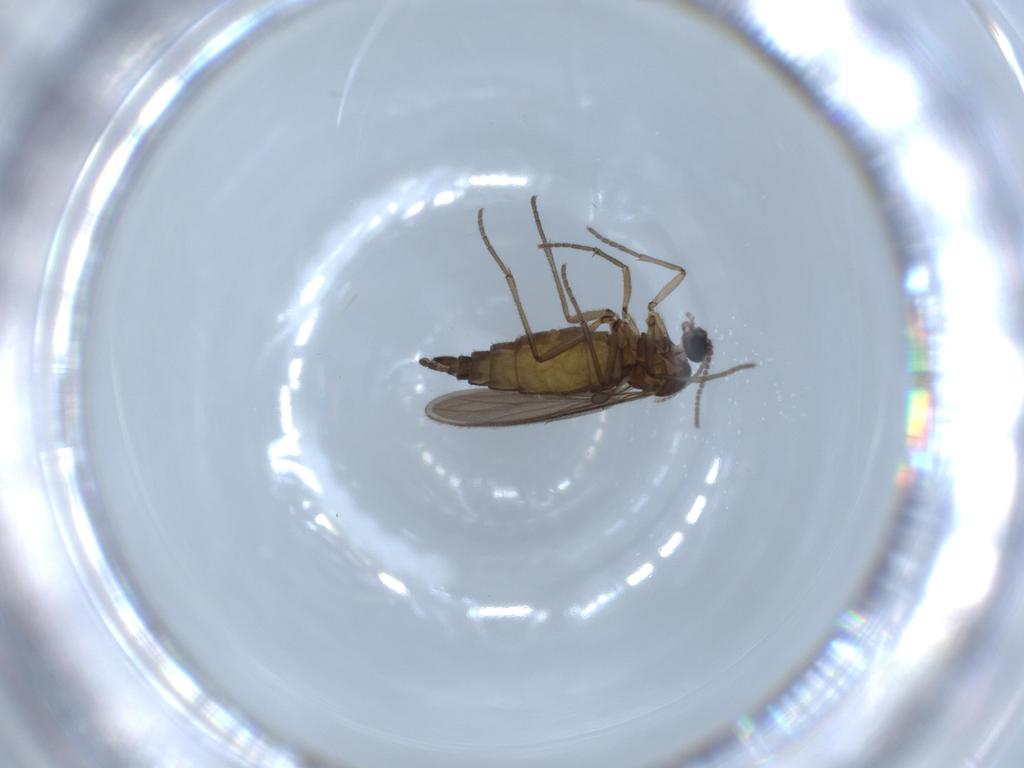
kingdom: Animalia
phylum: Arthropoda
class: Insecta
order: Diptera
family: Sciaridae
